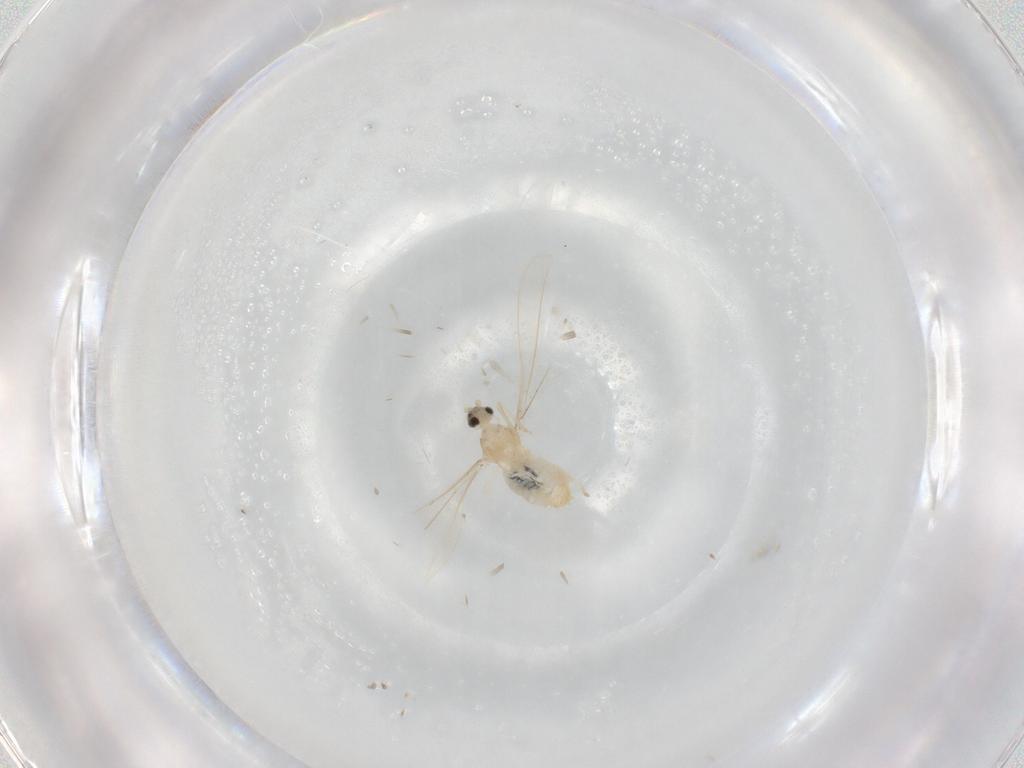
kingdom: Animalia
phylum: Arthropoda
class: Insecta
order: Diptera
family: Cecidomyiidae
